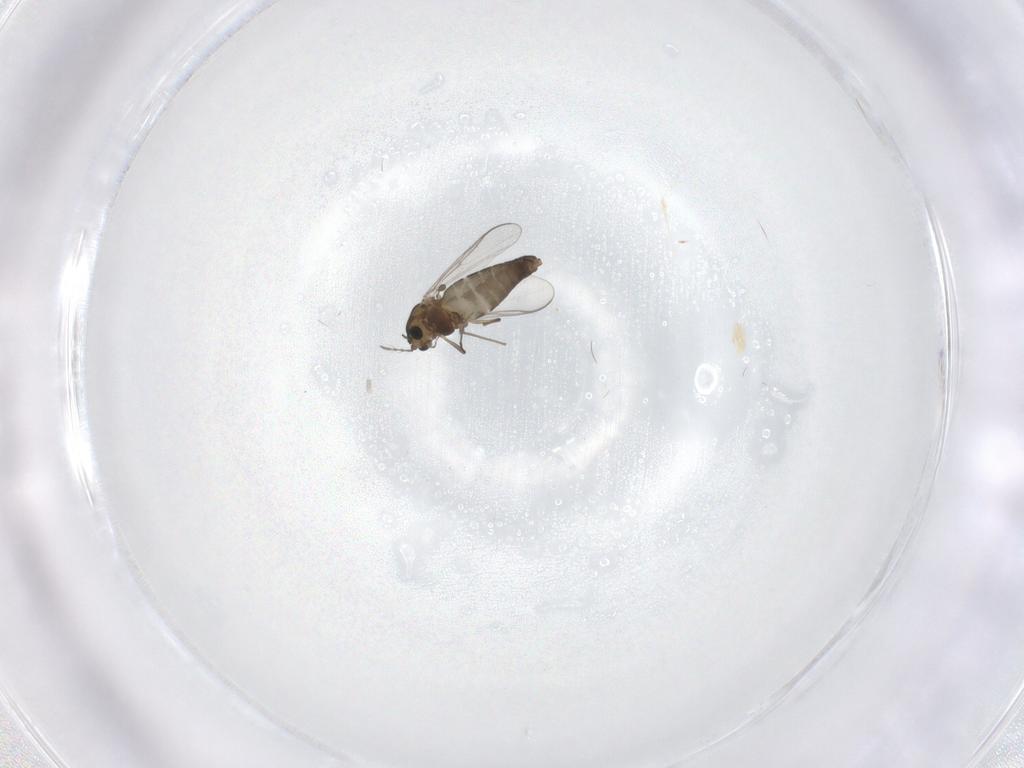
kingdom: Animalia
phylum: Arthropoda
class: Insecta
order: Diptera
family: Chironomidae
